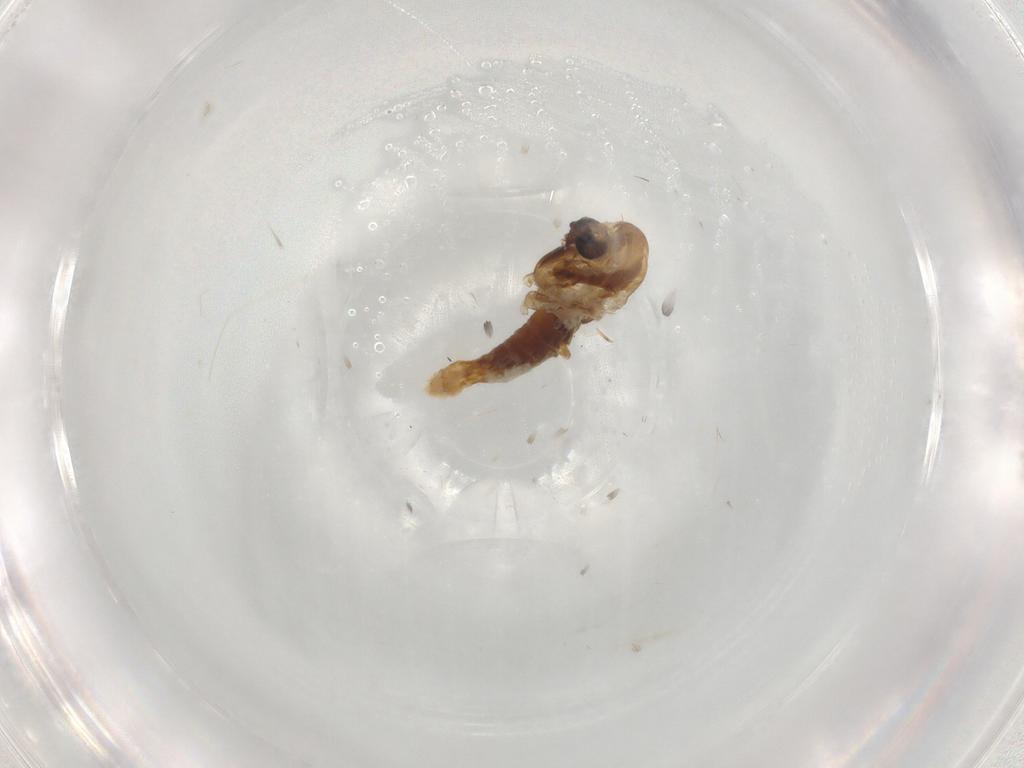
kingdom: Animalia
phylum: Arthropoda
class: Insecta
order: Diptera
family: Chironomidae
